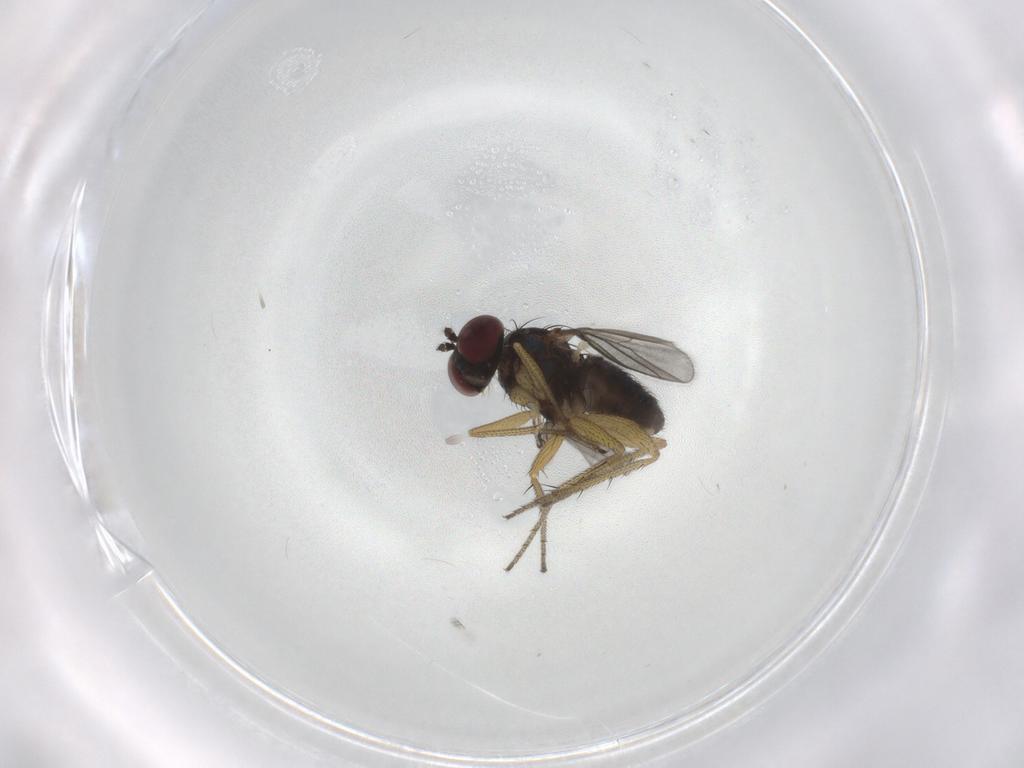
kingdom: Animalia
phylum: Arthropoda
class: Insecta
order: Diptera
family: Chironomidae
